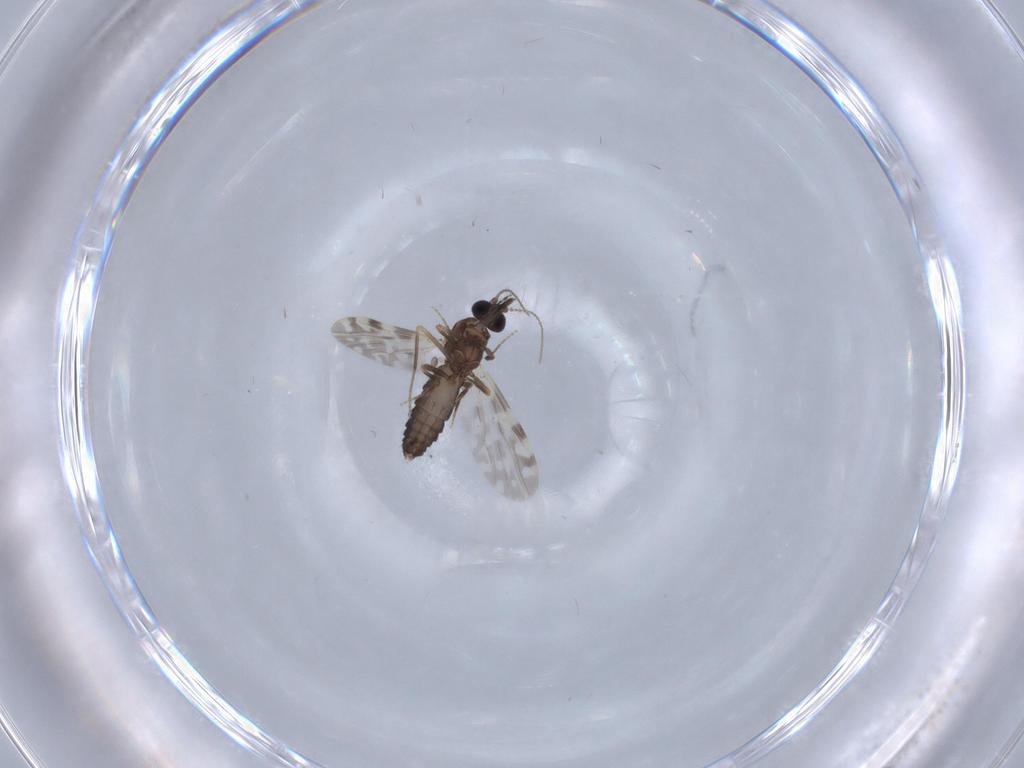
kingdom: Animalia
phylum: Arthropoda
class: Insecta
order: Diptera
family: Ceratopogonidae
